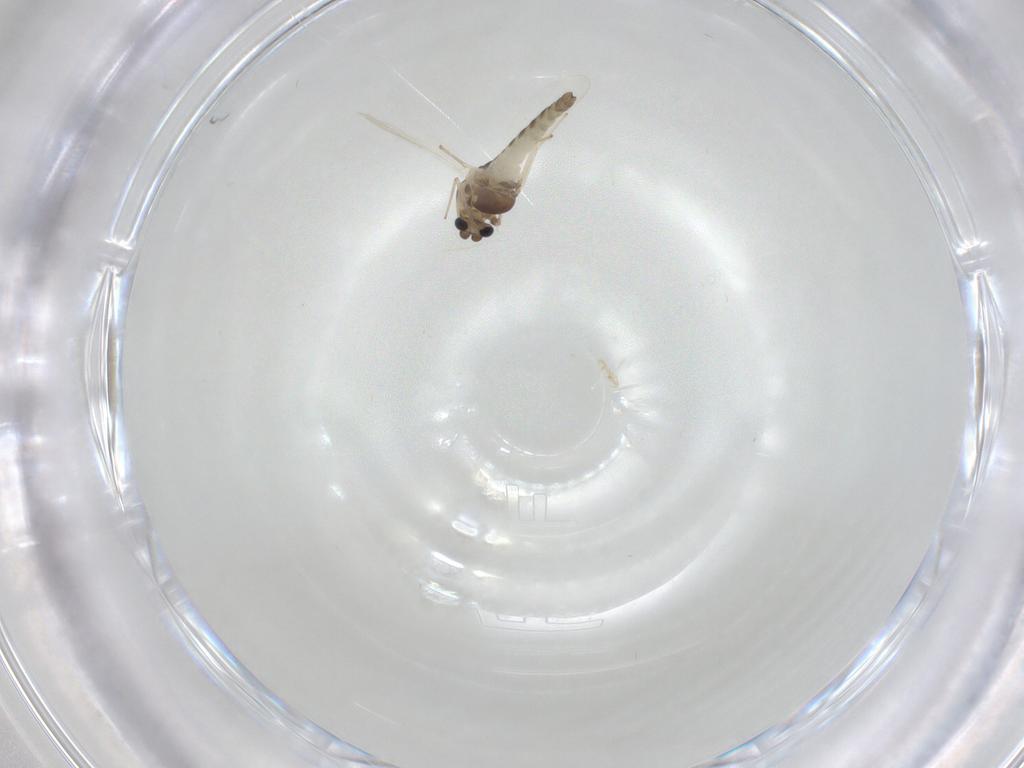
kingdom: Animalia
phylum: Arthropoda
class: Insecta
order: Diptera
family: Chironomidae
